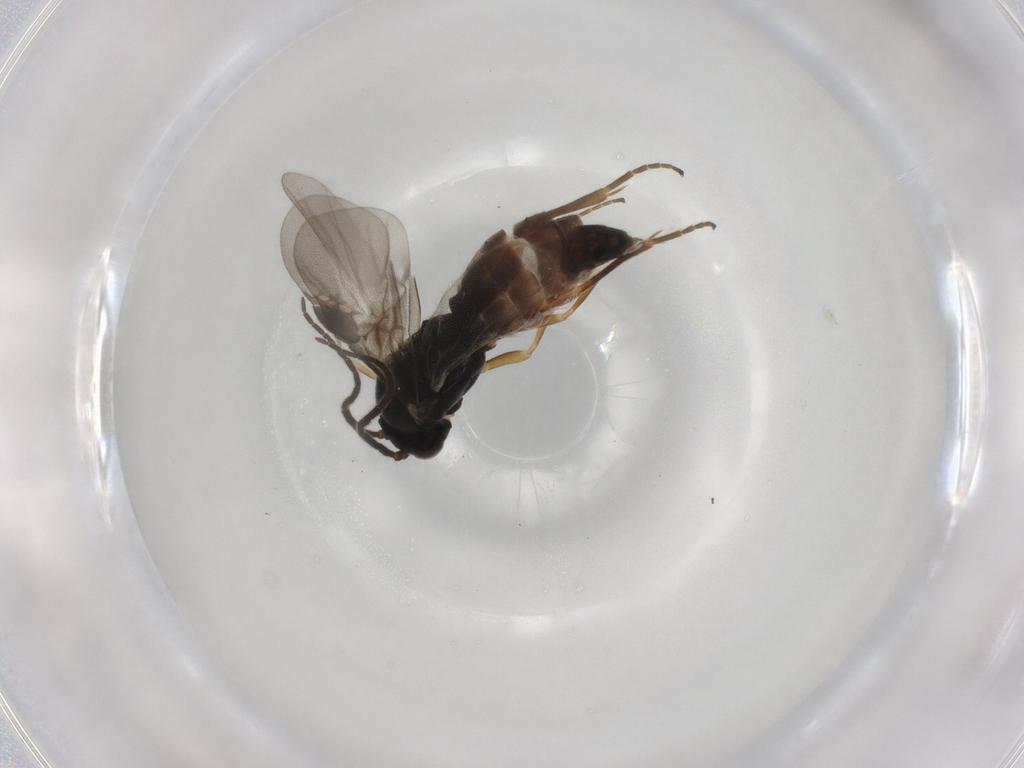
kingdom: Animalia
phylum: Arthropoda
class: Insecta
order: Hymenoptera
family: Braconidae
